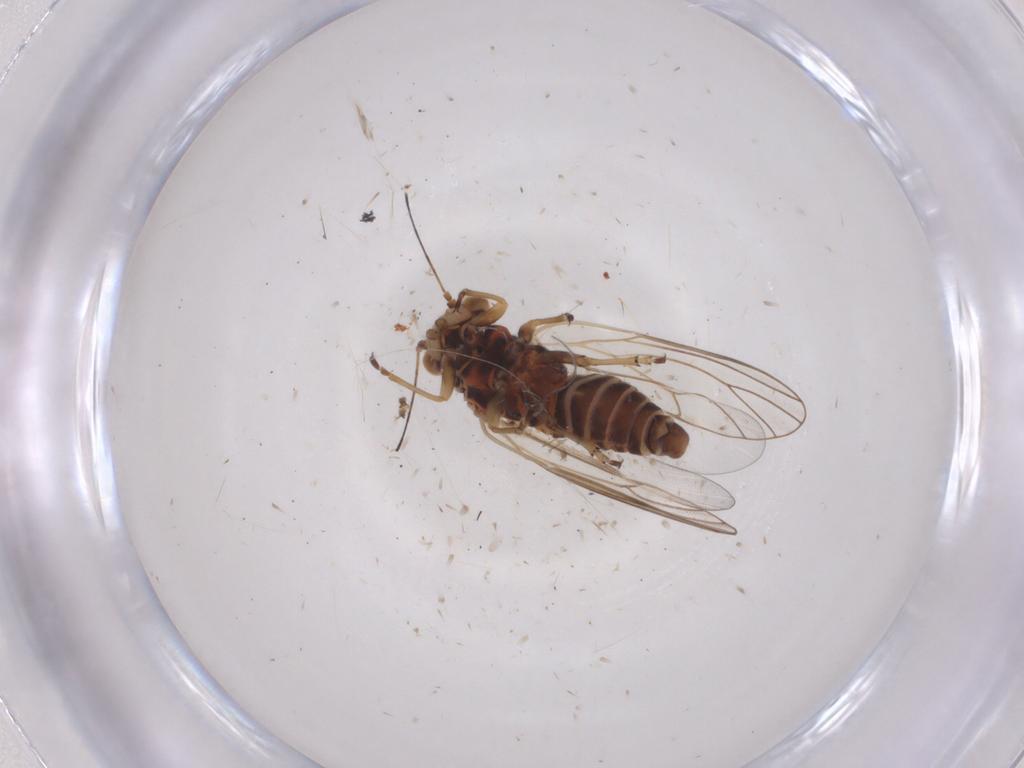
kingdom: Animalia
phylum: Arthropoda
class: Insecta
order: Hemiptera
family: Psyllidae
